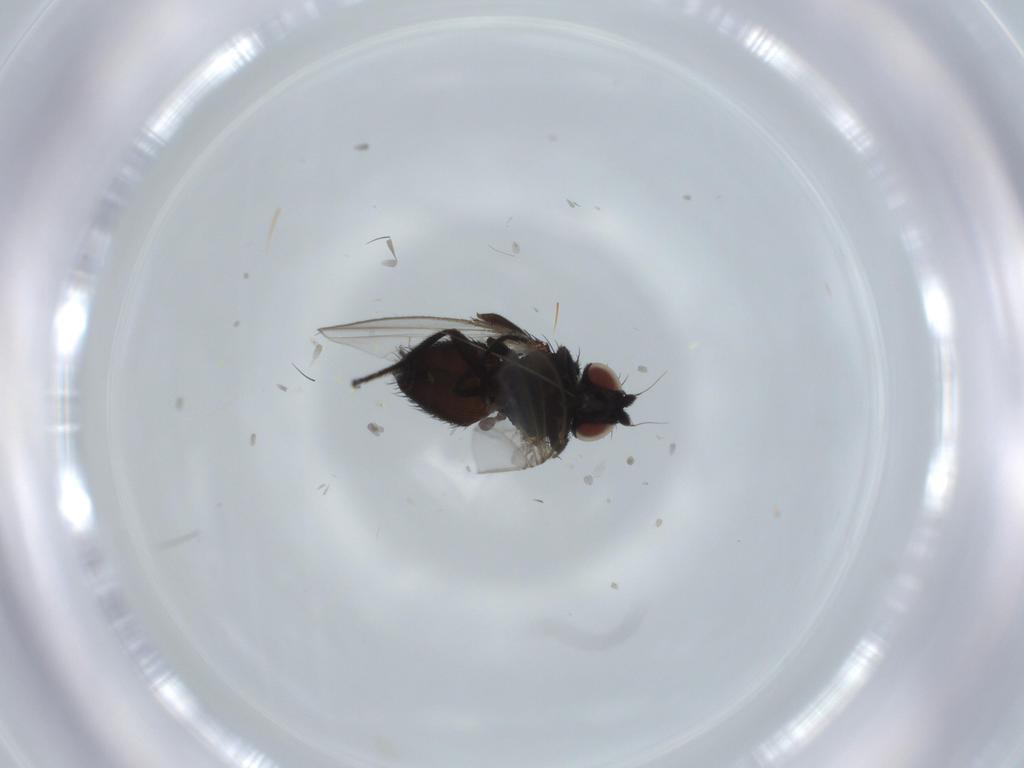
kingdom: Animalia
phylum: Arthropoda
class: Insecta
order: Diptera
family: Milichiidae
